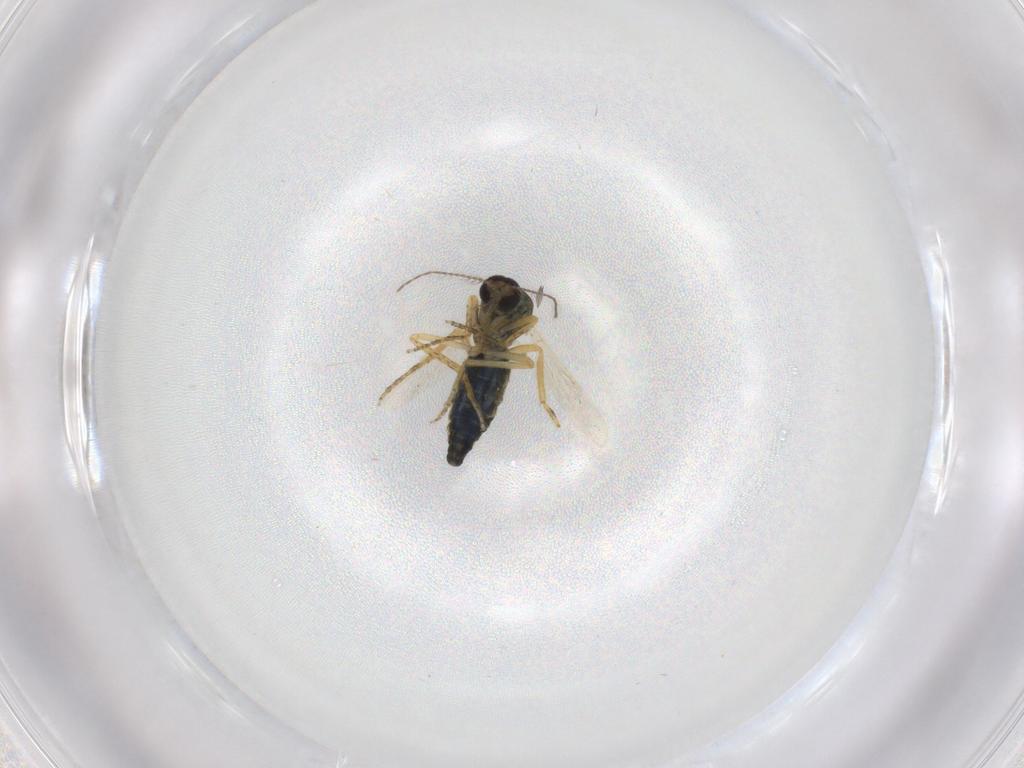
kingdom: Animalia
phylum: Arthropoda
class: Insecta
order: Diptera
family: Ceratopogonidae
